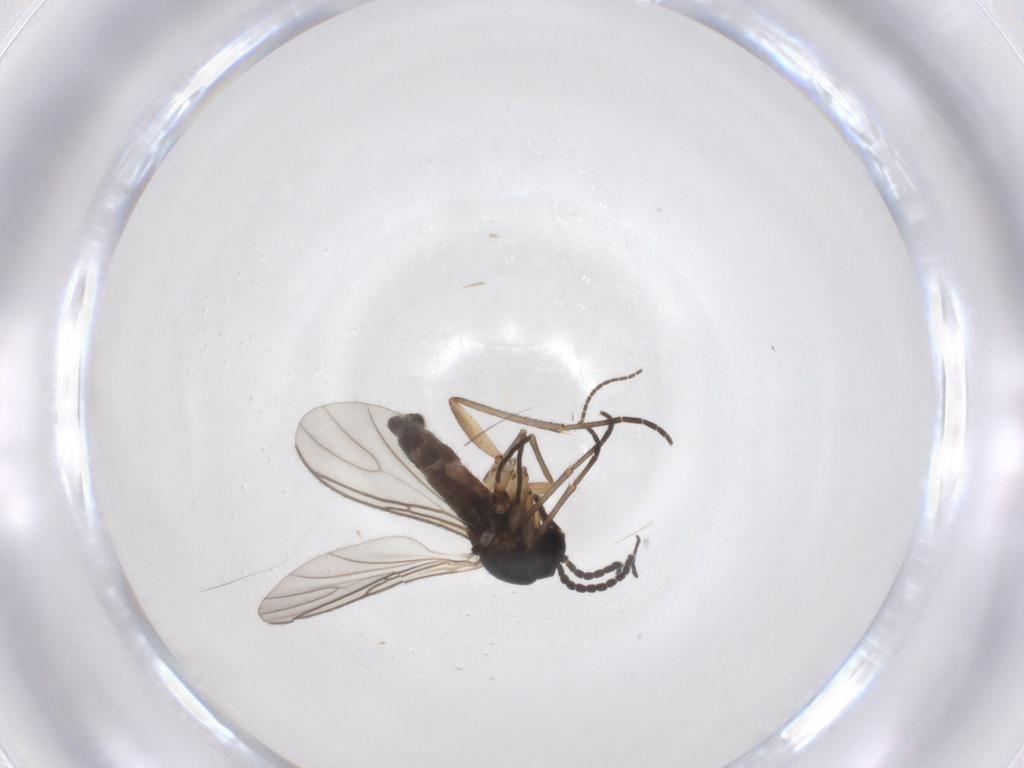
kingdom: Animalia
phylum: Arthropoda
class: Insecta
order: Diptera
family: Sciaridae
